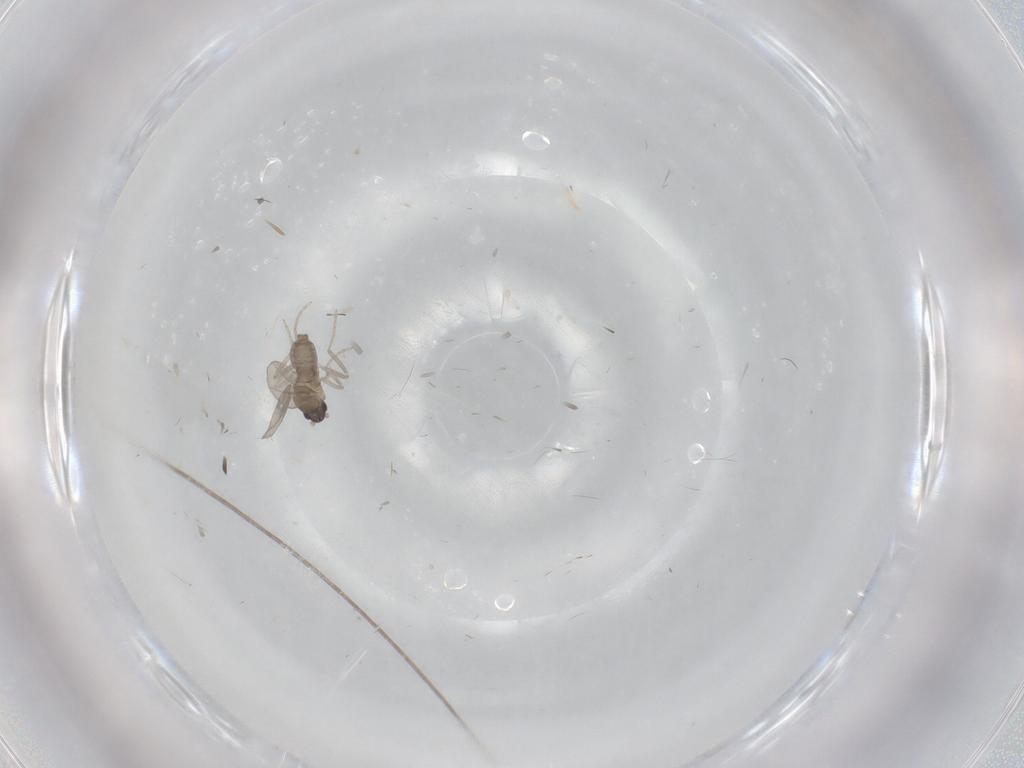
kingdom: Animalia
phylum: Arthropoda
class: Insecta
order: Diptera
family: Cecidomyiidae
